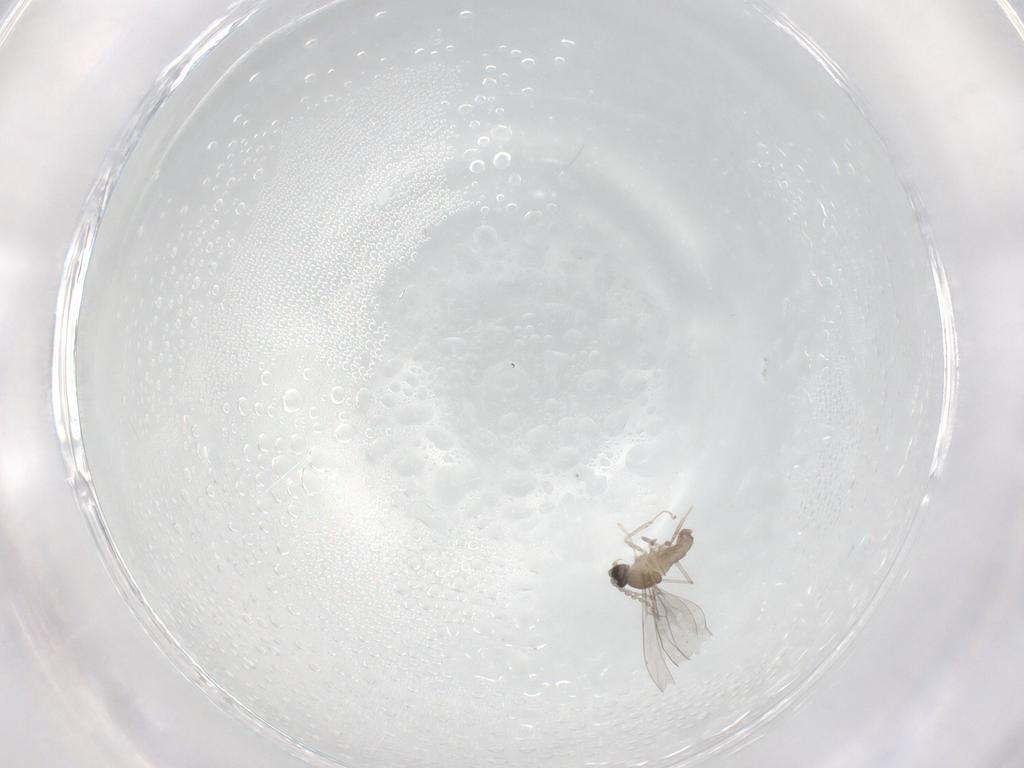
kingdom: Animalia
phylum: Arthropoda
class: Insecta
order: Diptera
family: Cecidomyiidae
